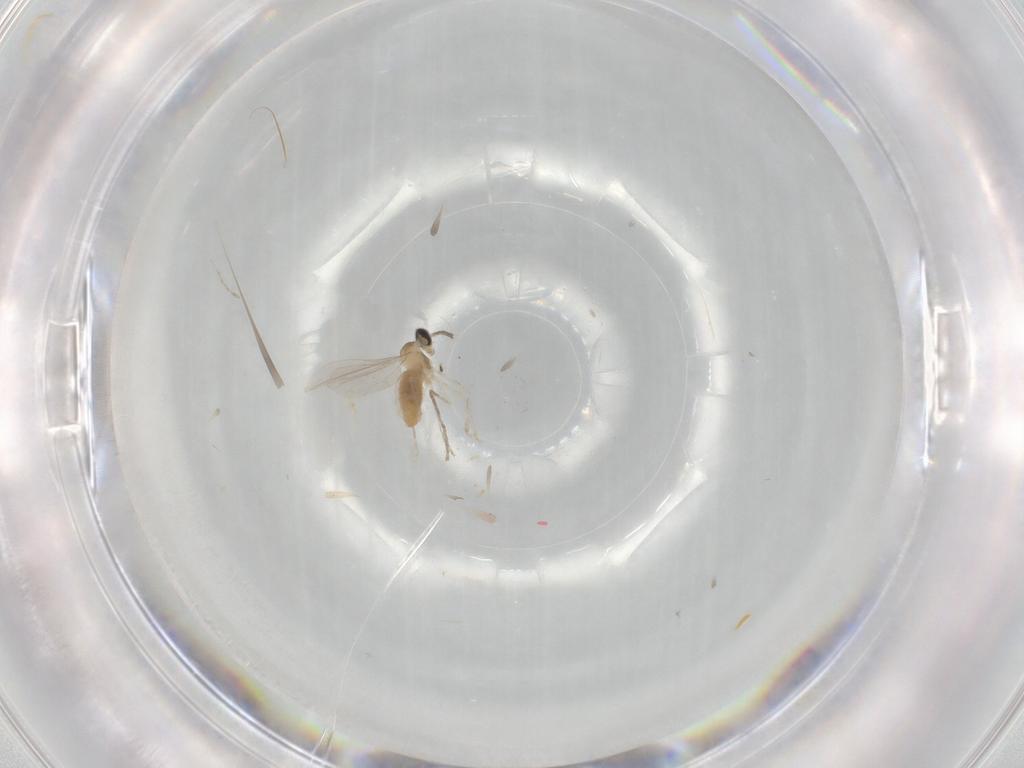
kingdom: Animalia
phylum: Arthropoda
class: Insecta
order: Diptera
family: Cecidomyiidae
